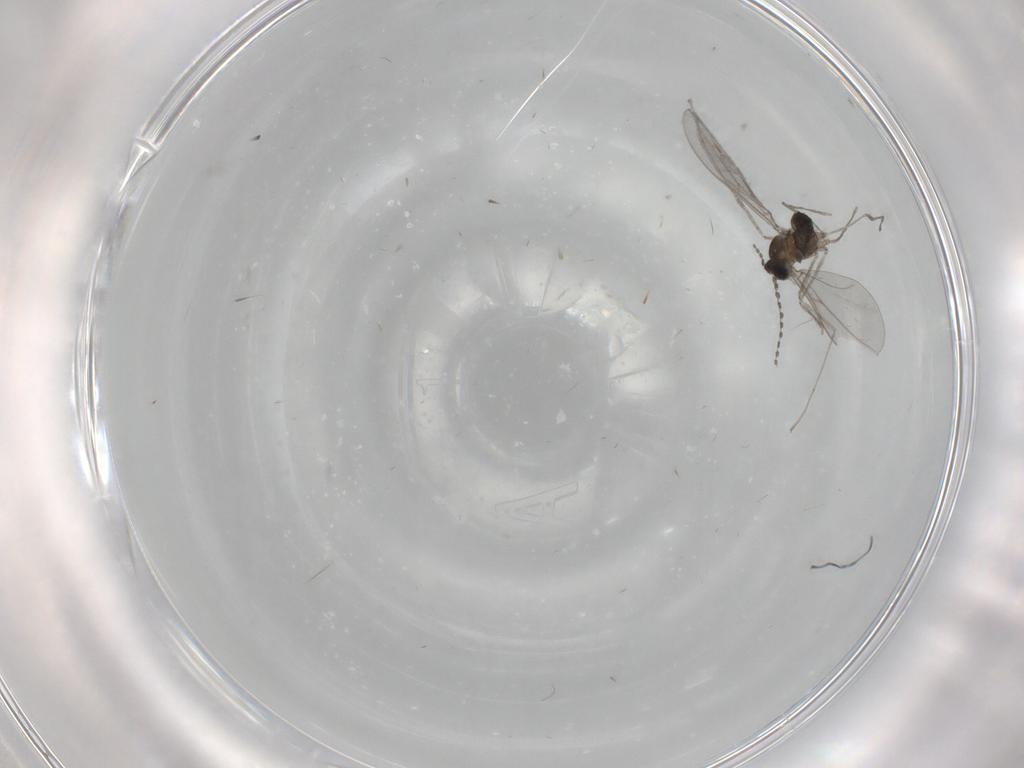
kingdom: Animalia
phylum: Arthropoda
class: Insecta
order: Diptera
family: Cecidomyiidae
